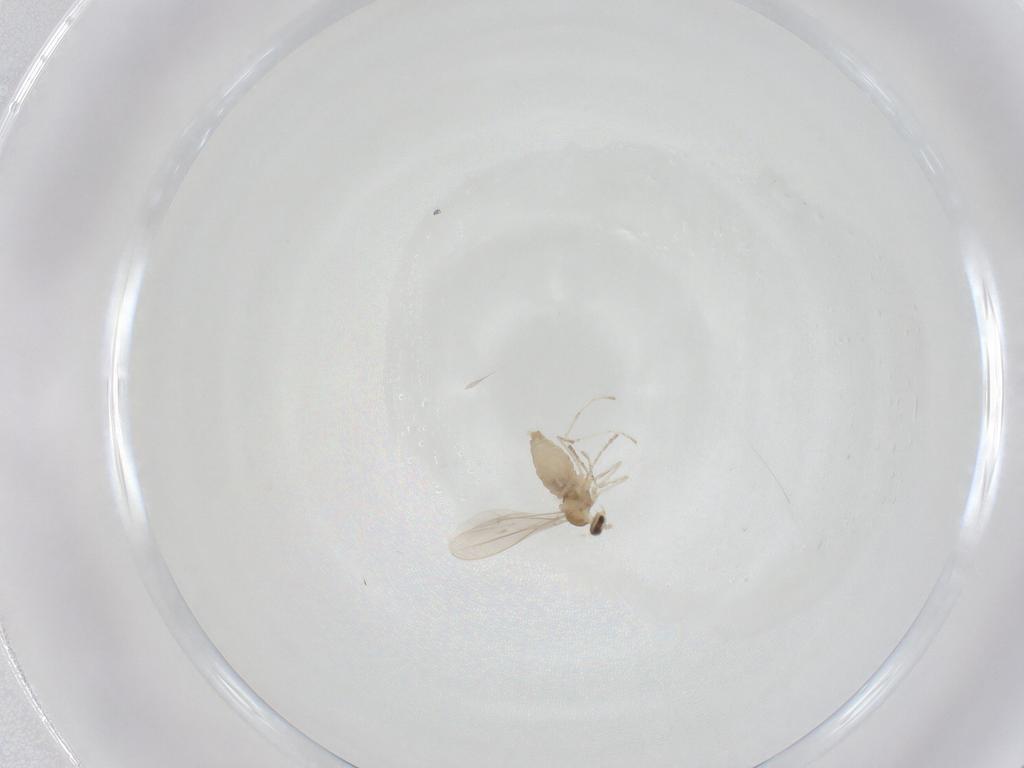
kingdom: Animalia
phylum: Arthropoda
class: Insecta
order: Diptera
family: Cecidomyiidae
